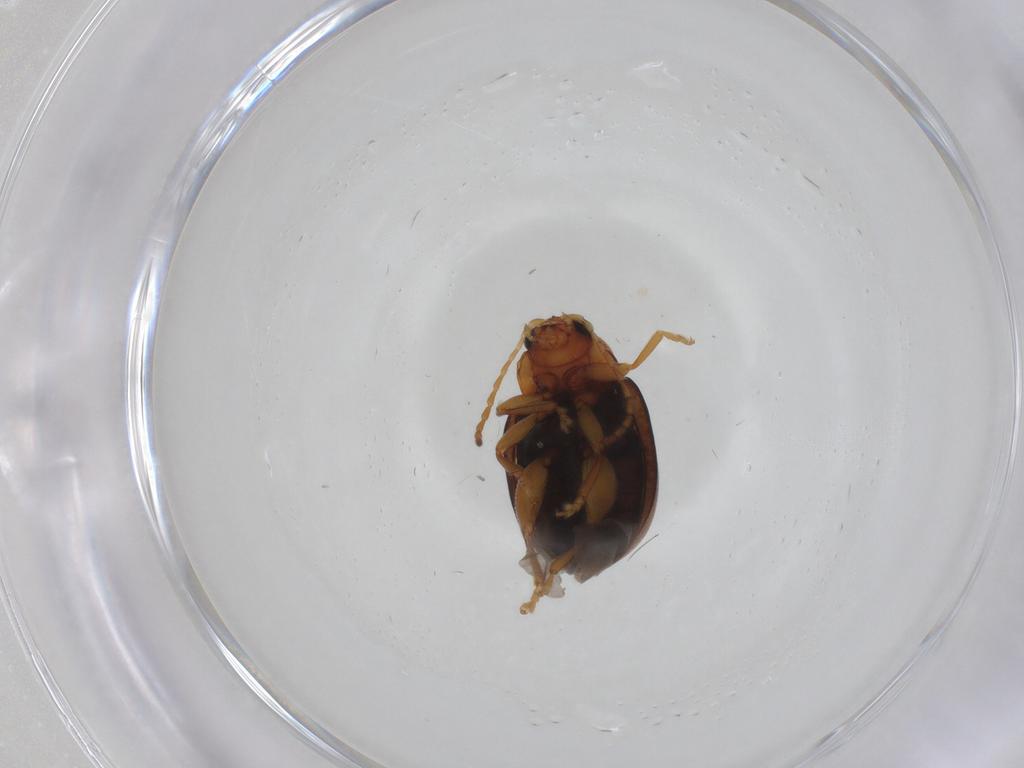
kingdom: Animalia
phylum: Arthropoda
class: Insecta
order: Coleoptera
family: Chrysomelidae
